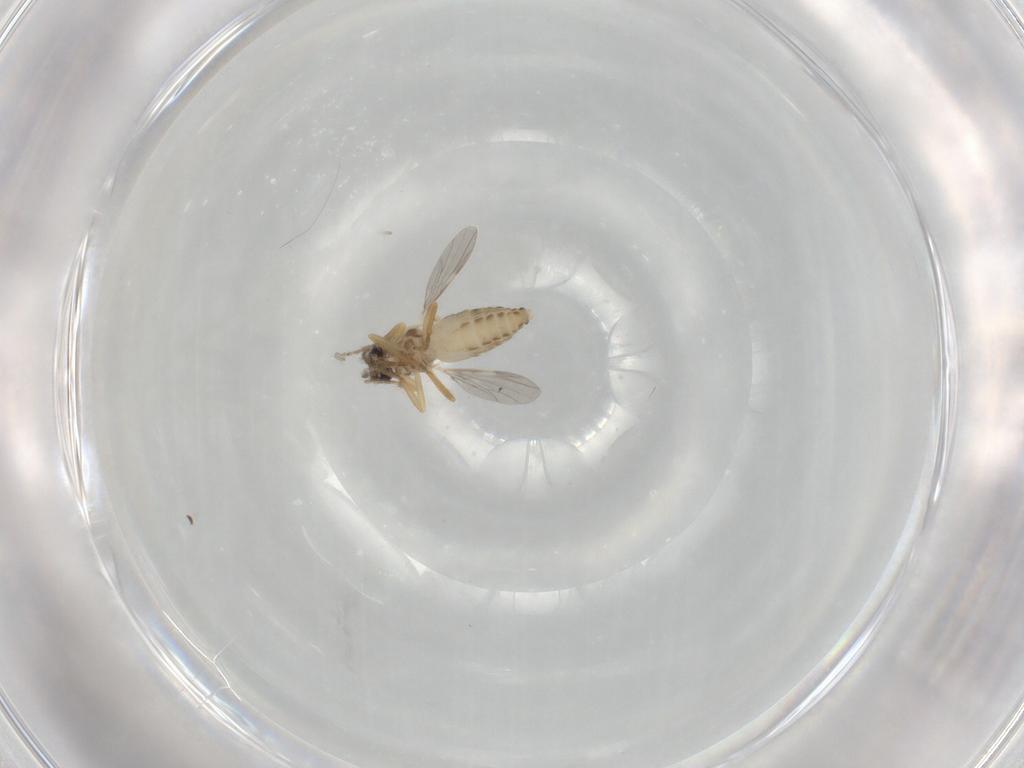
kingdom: Animalia
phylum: Arthropoda
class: Insecta
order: Diptera
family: Ceratopogonidae
